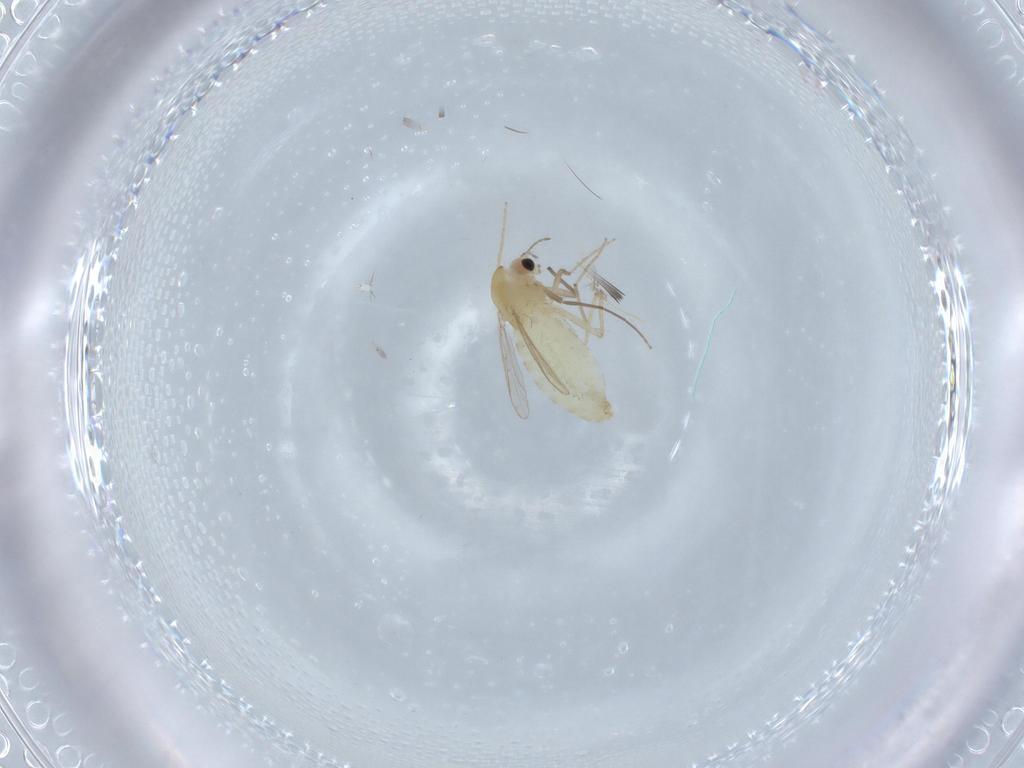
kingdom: Animalia
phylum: Arthropoda
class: Insecta
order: Diptera
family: Chironomidae
